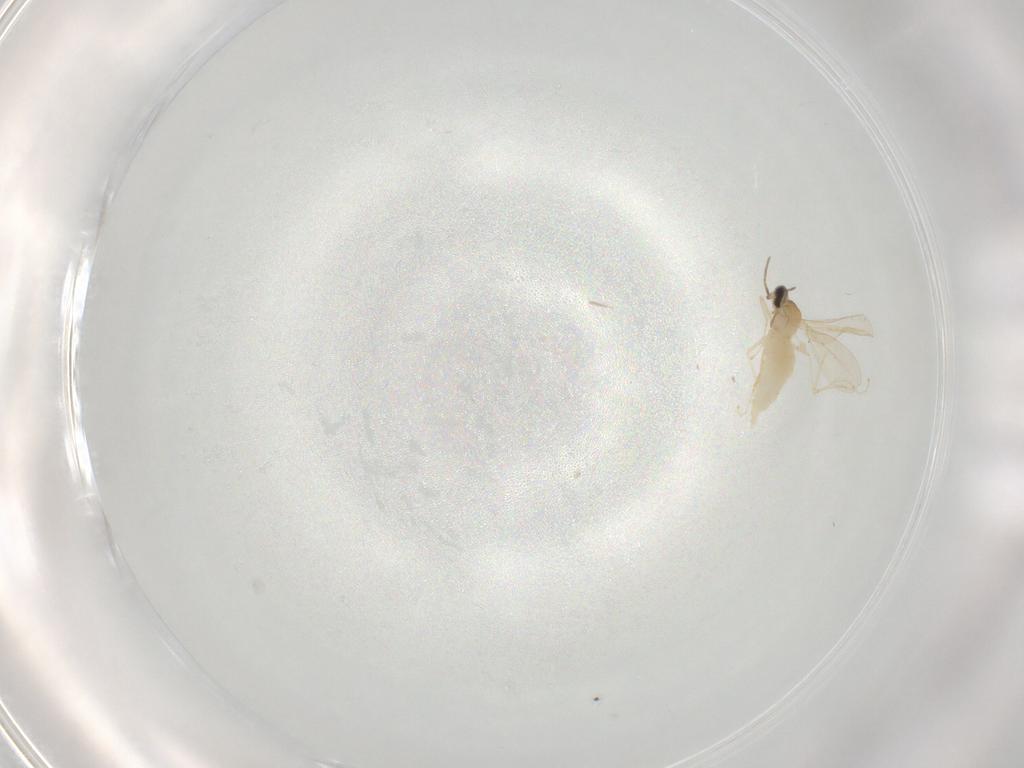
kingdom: Animalia
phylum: Arthropoda
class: Insecta
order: Diptera
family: Cecidomyiidae
